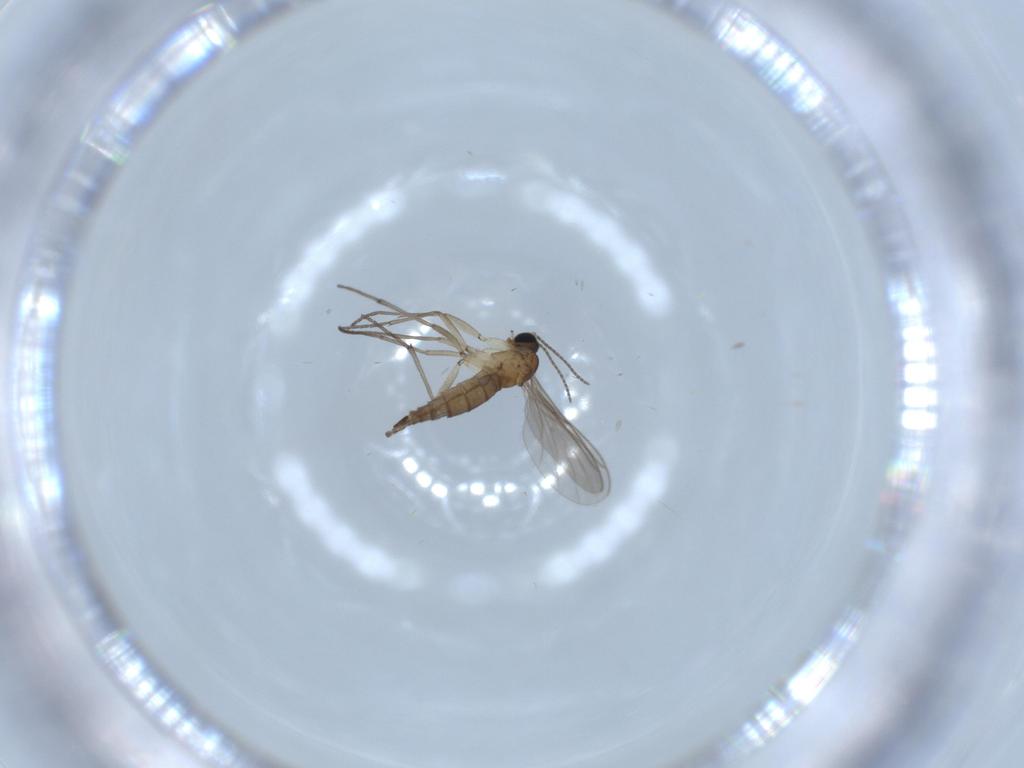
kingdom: Animalia
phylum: Arthropoda
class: Insecta
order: Diptera
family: Sciaridae
